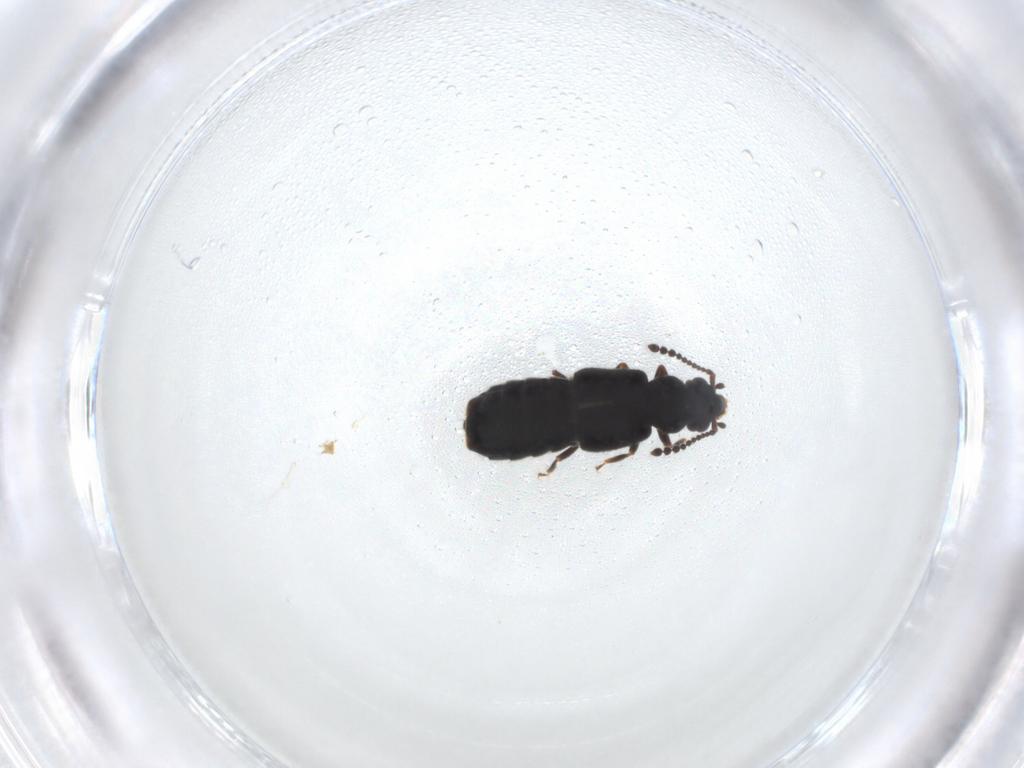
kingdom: Animalia
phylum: Arthropoda
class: Insecta
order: Coleoptera
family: Staphylinidae
